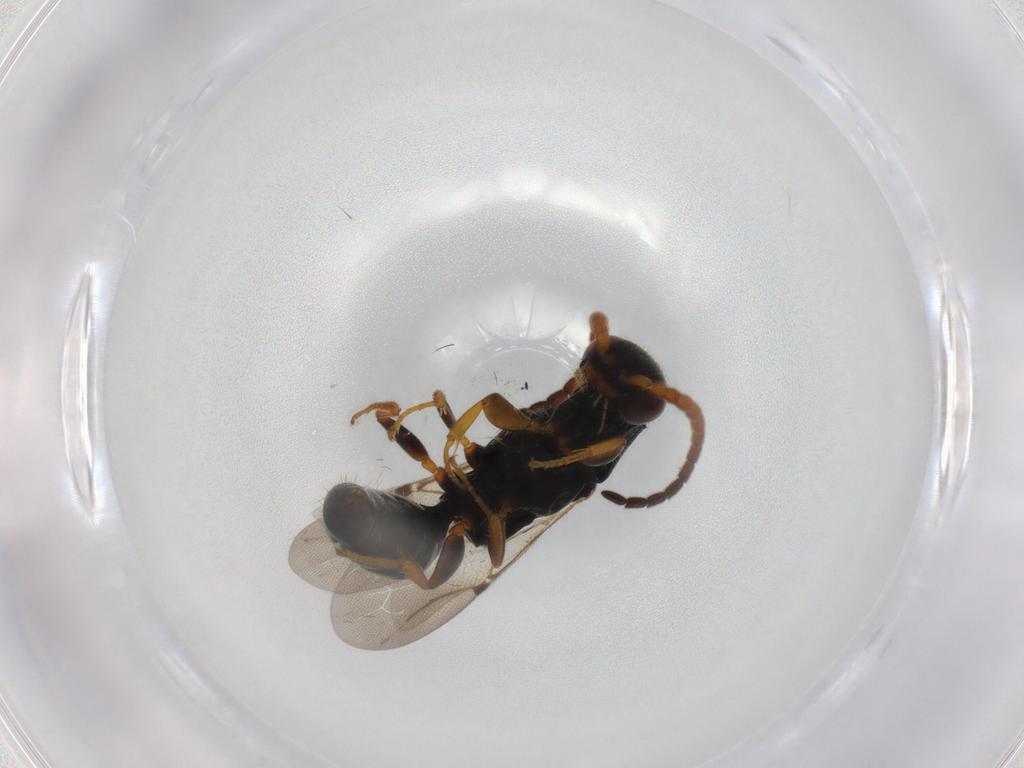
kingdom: Animalia
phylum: Arthropoda
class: Insecta
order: Hymenoptera
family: Bethylidae
